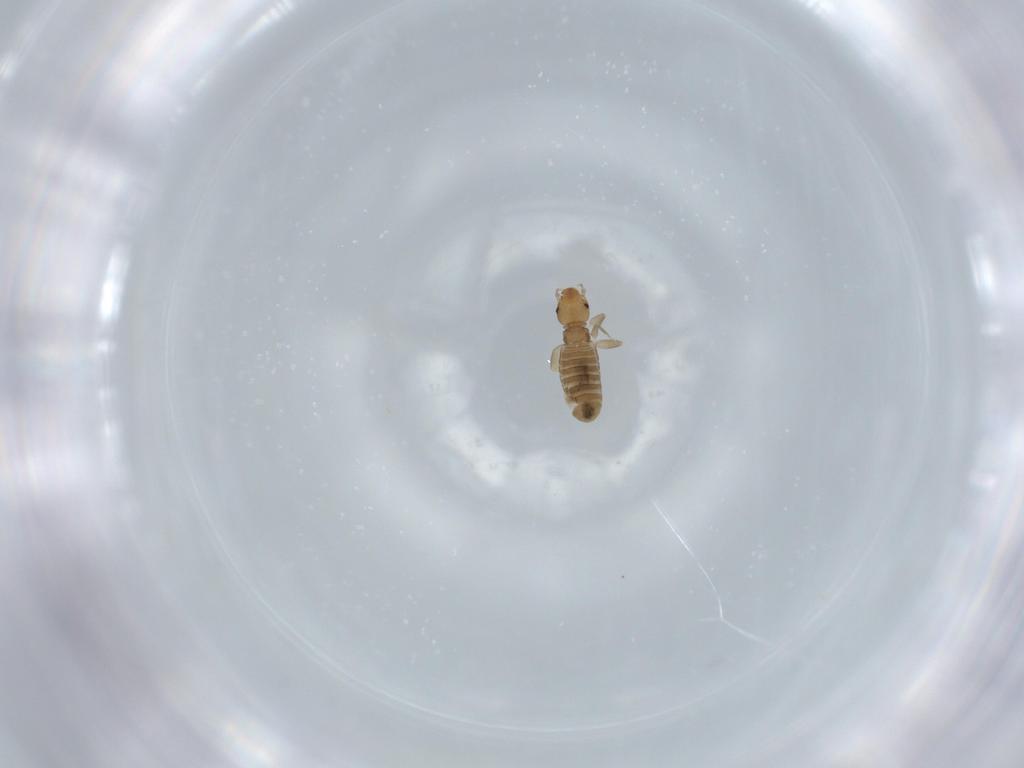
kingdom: Animalia
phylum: Arthropoda
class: Insecta
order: Psocodea
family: Liposcelididae
